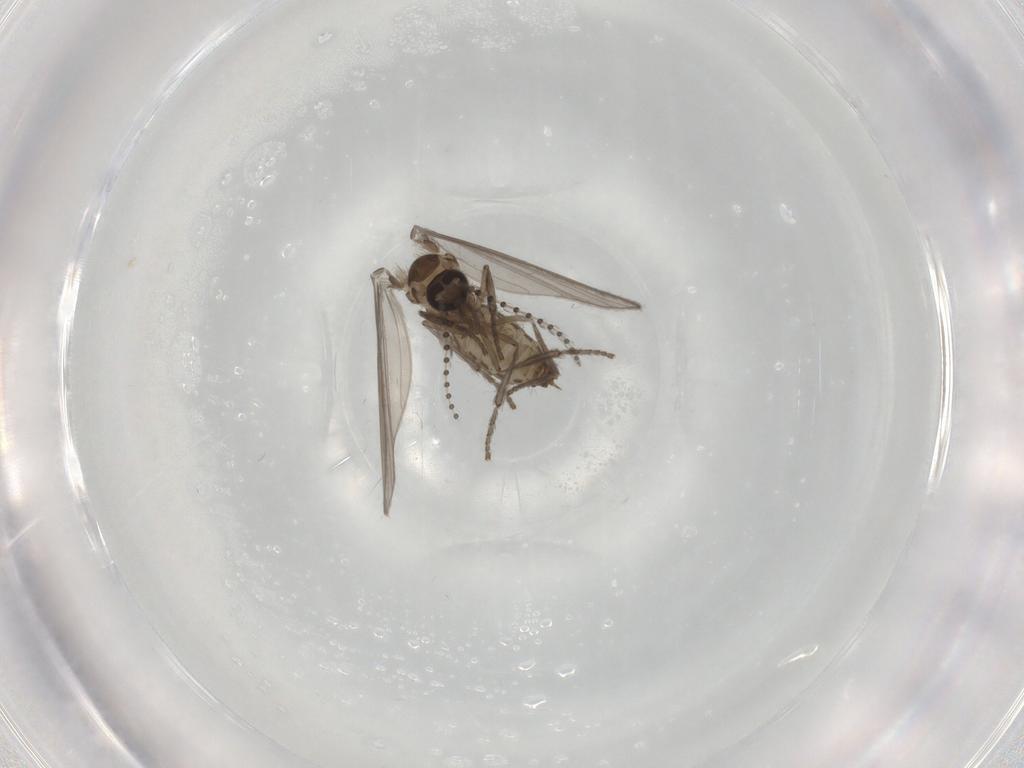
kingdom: Animalia
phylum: Arthropoda
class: Insecta
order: Diptera
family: Psychodidae
